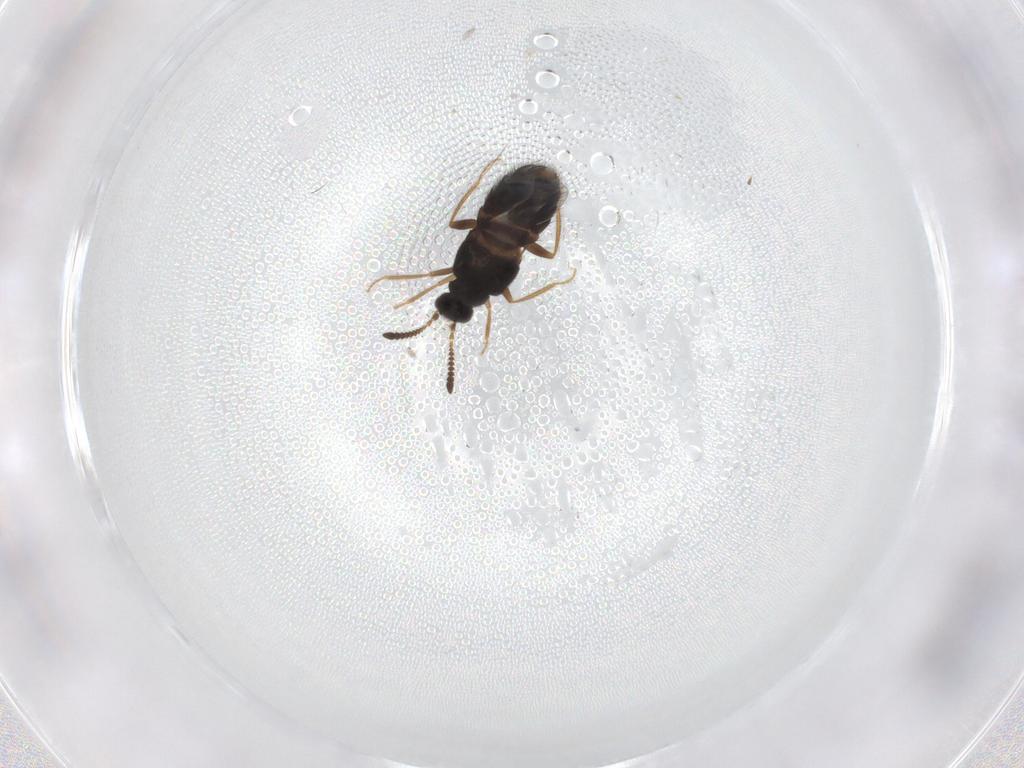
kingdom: Animalia
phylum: Arthropoda
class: Insecta
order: Coleoptera
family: Staphylinidae
